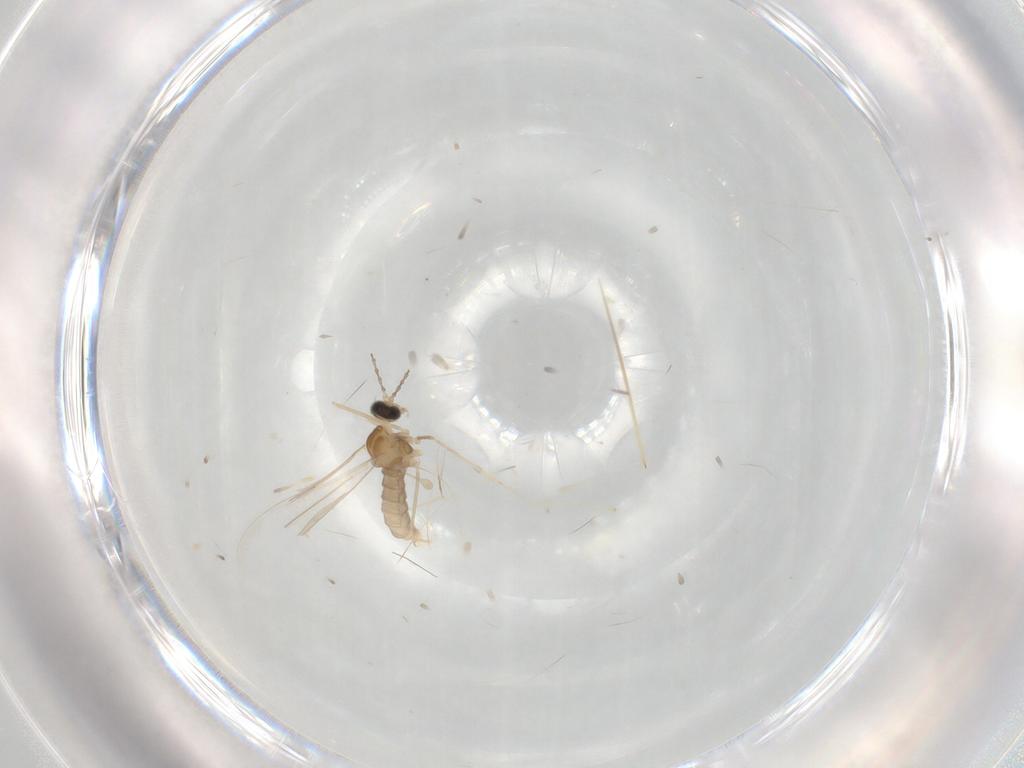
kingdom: Animalia
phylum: Arthropoda
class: Insecta
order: Diptera
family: Cecidomyiidae
